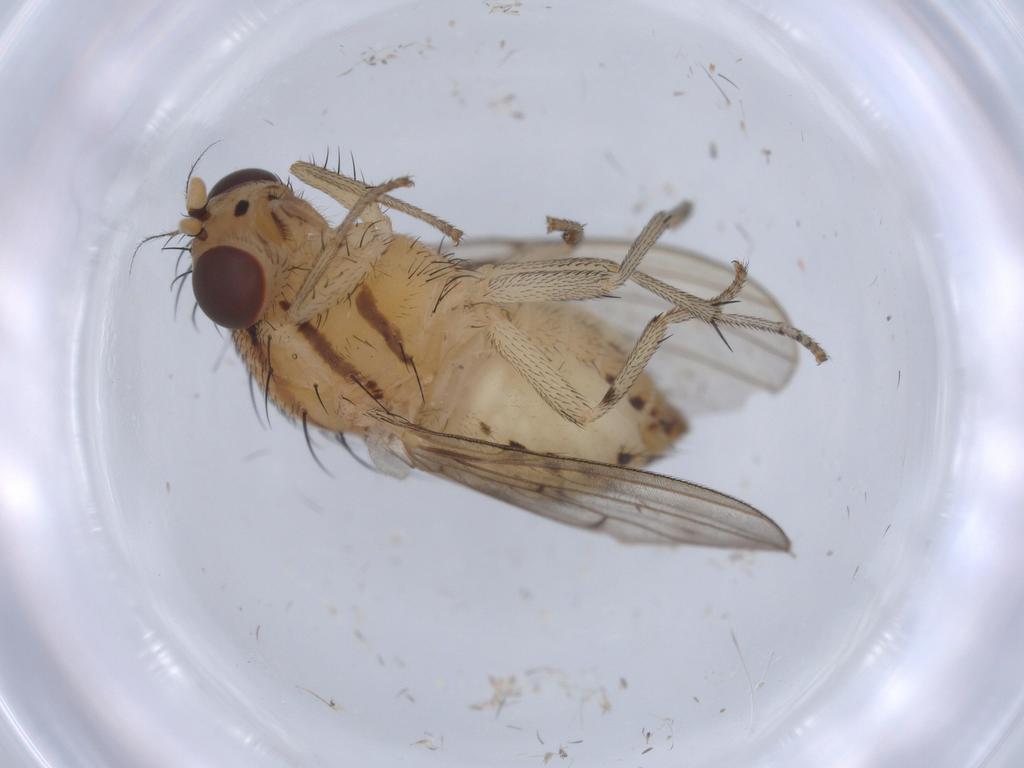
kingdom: Animalia
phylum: Arthropoda
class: Insecta
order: Diptera
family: Lauxaniidae
